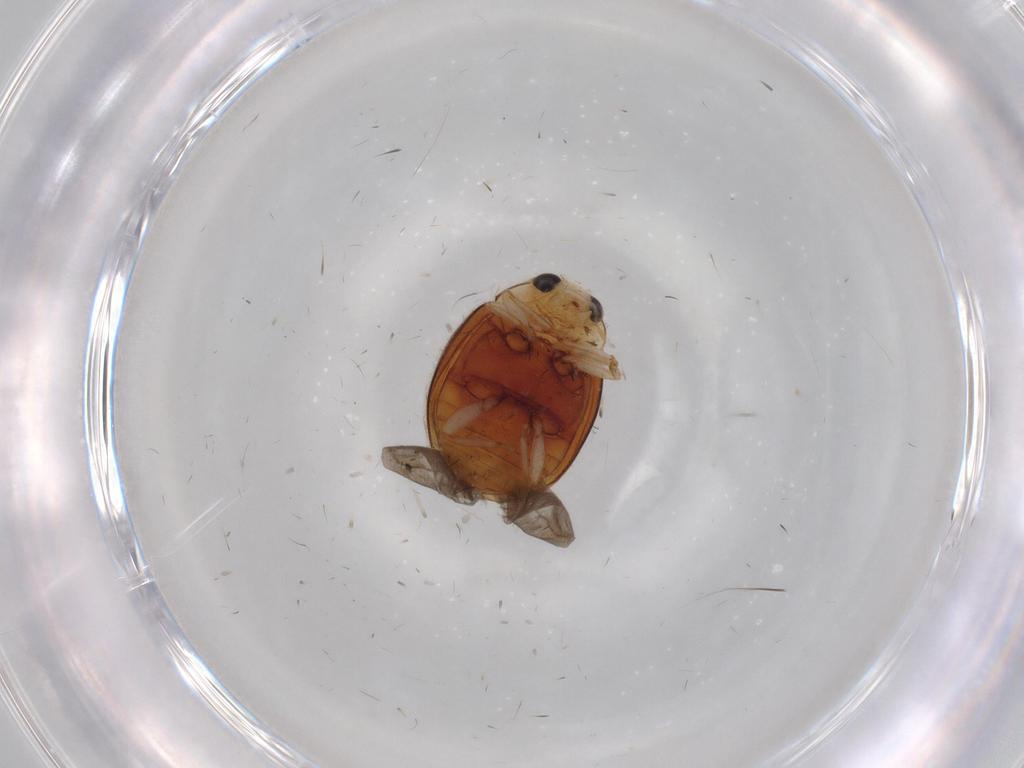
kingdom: Animalia
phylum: Arthropoda
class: Insecta
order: Coleoptera
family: Coccinellidae
